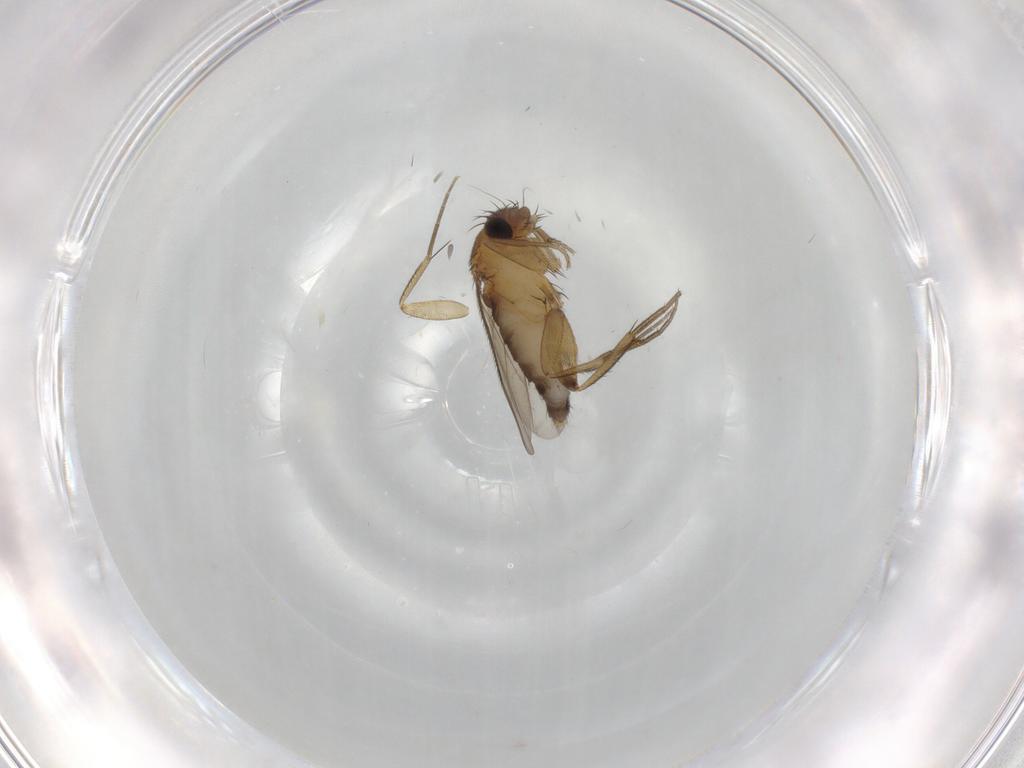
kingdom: Animalia
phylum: Arthropoda
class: Insecta
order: Diptera
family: Phoridae
